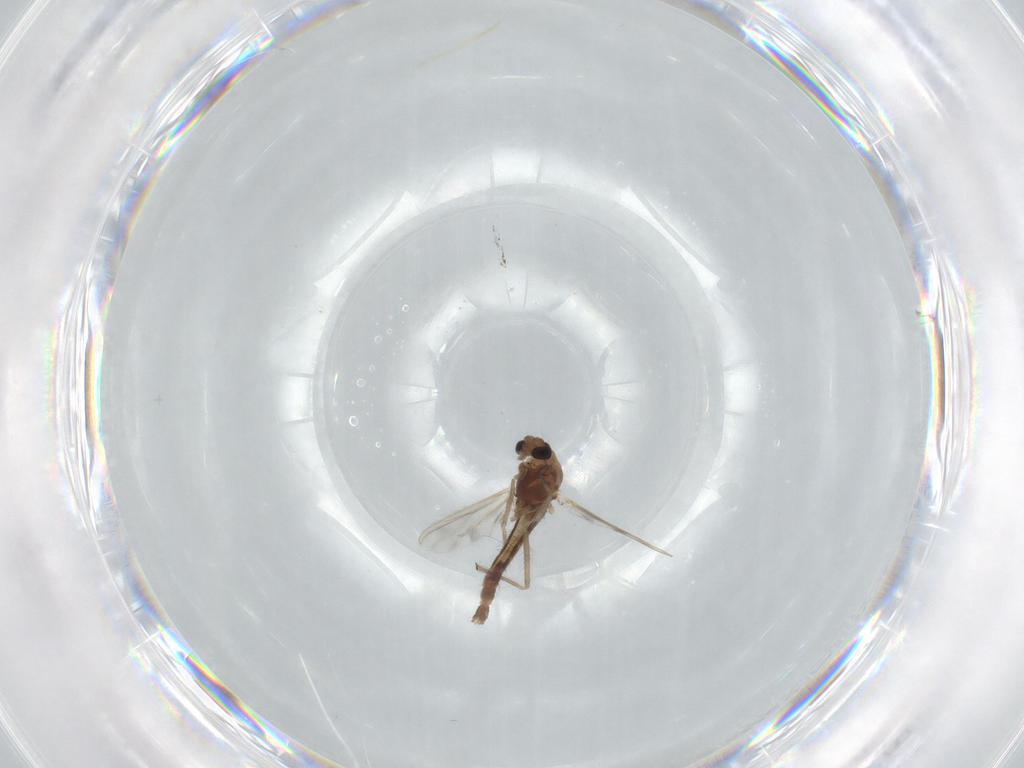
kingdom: Animalia
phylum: Arthropoda
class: Insecta
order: Diptera
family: Chironomidae
